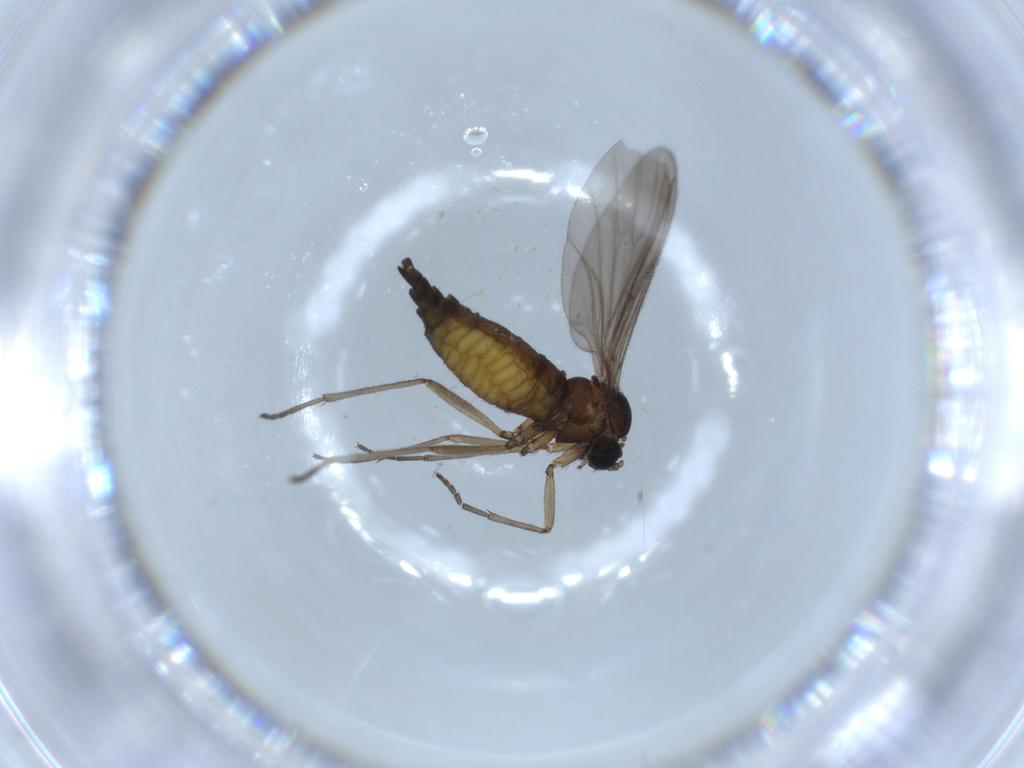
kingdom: Animalia
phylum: Arthropoda
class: Insecta
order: Diptera
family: Sciaridae
